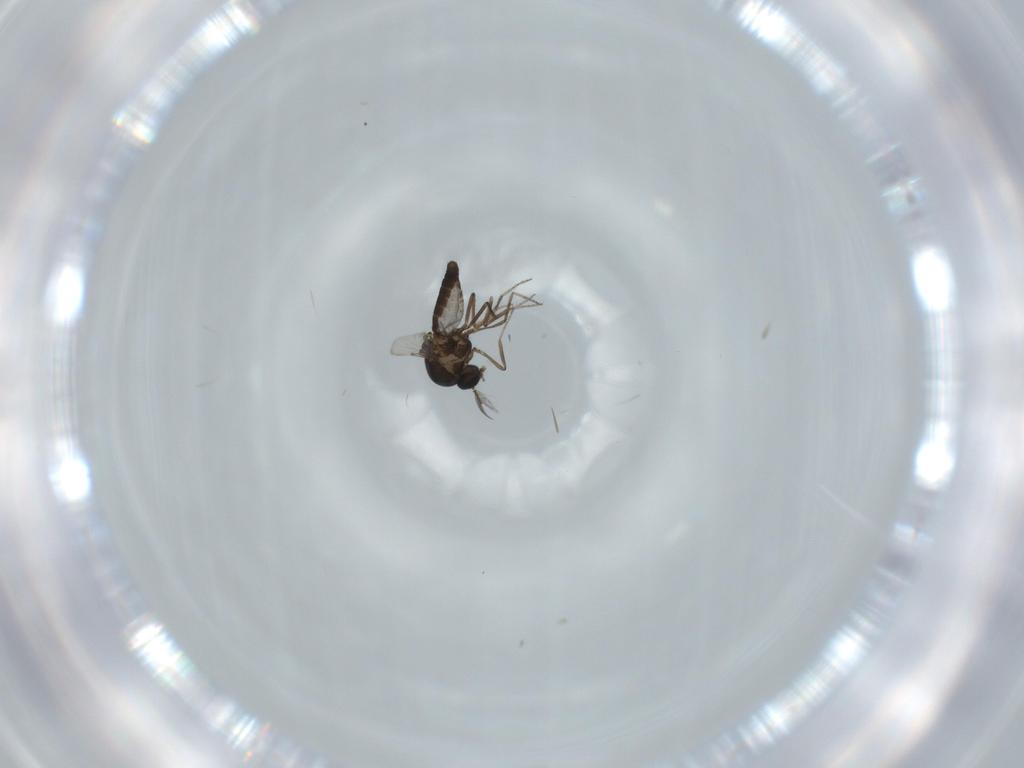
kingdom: Animalia
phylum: Arthropoda
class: Insecta
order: Diptera
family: Ceratopogonidae
